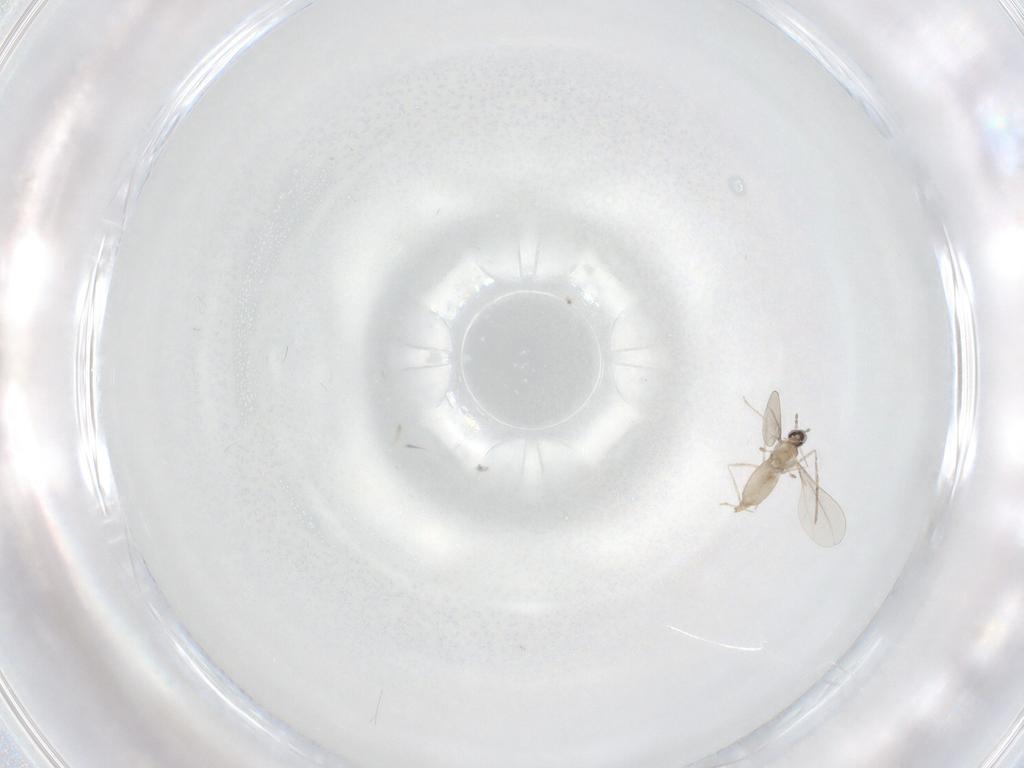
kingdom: Animalia
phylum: Arthropoda
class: Insecta
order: Diptera
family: Cecidomyiidae
